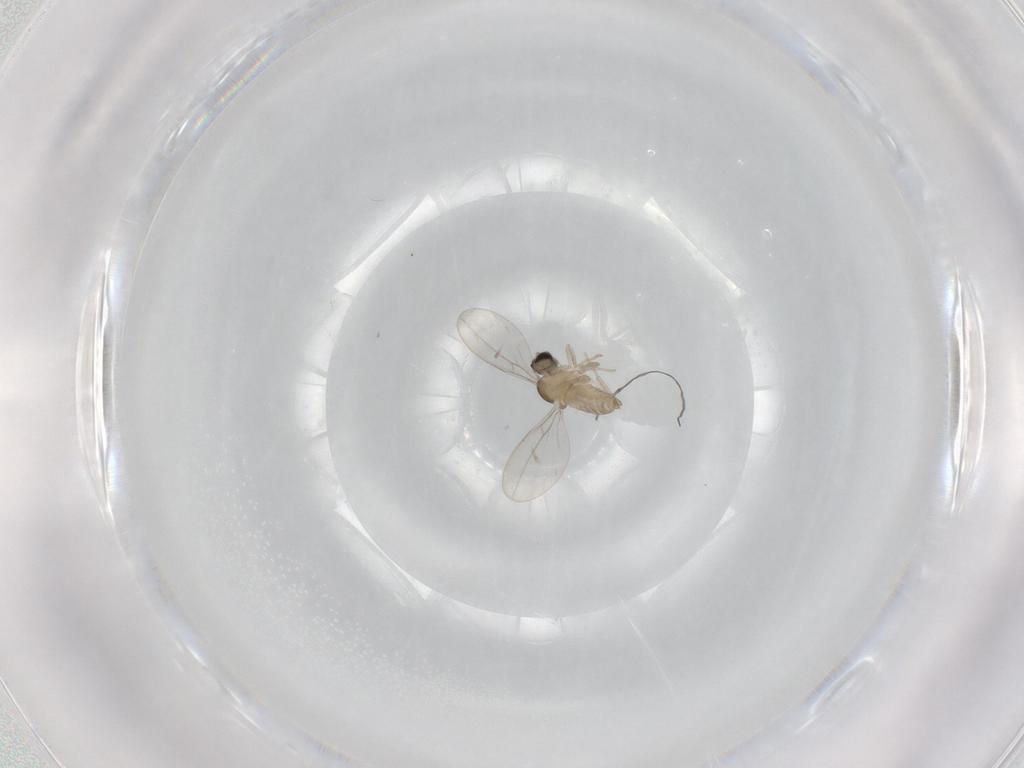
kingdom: Animalia
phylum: Arthropoda
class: Insecta
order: Diptera
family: Cecidomyiidae
